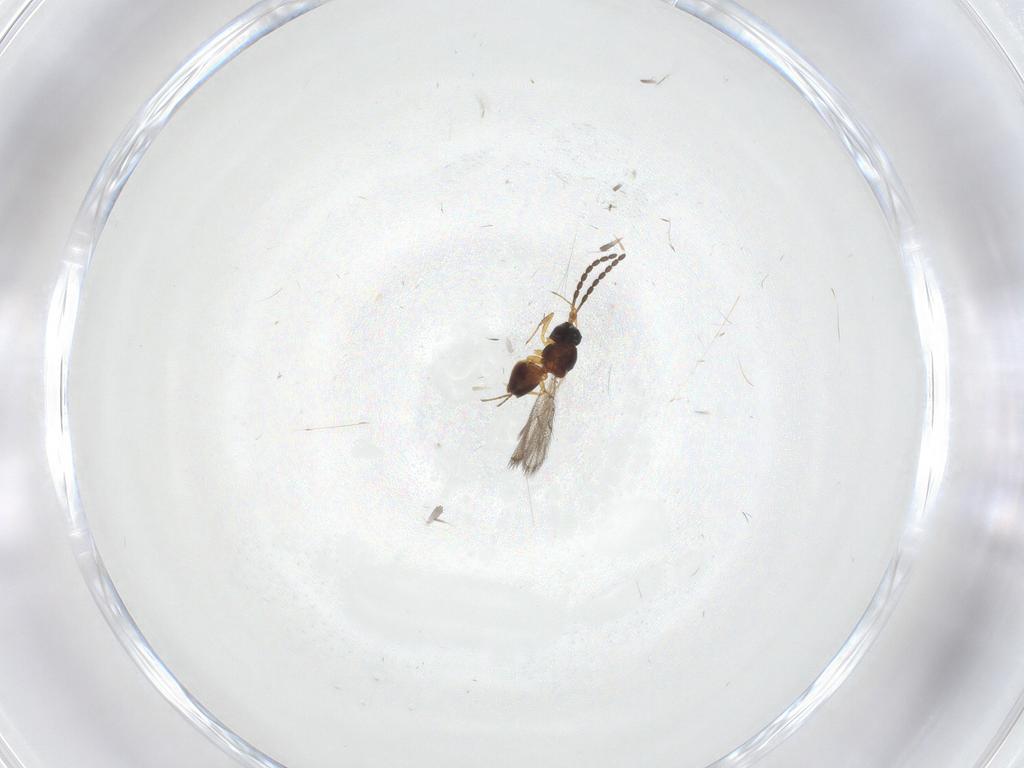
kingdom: Animalia
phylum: Arthropoda
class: Insecta
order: Hymenoptera
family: Figitidae
